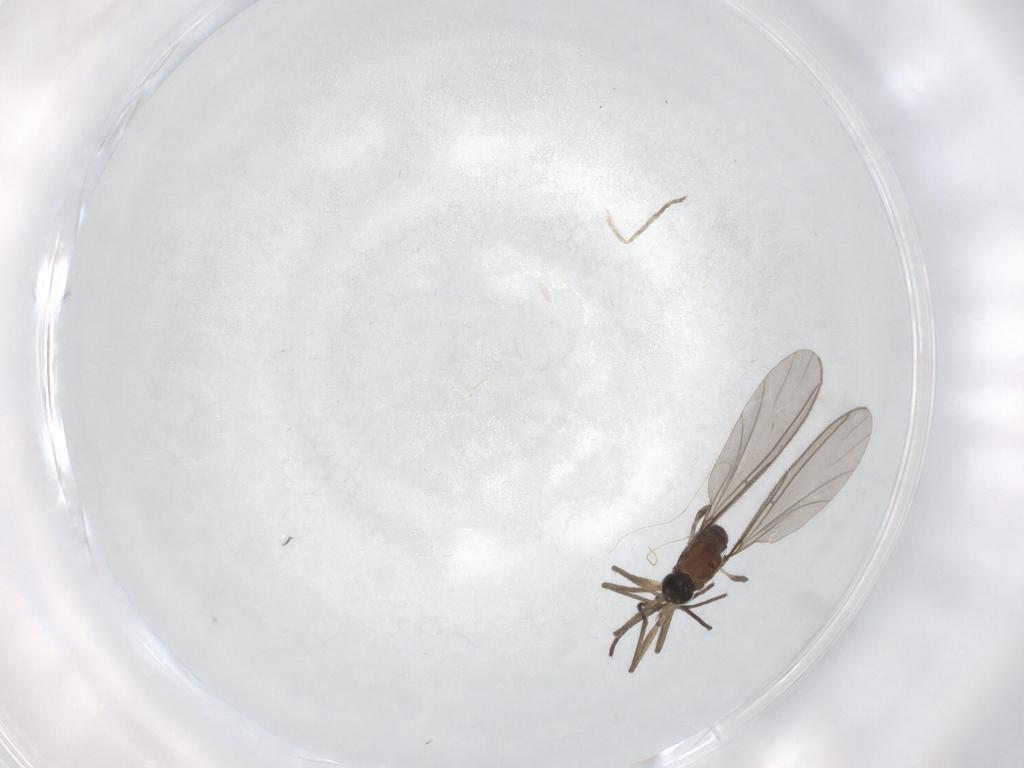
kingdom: Animalia
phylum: Arthropoda
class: Insecta
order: Diptera
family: Sciaridae
